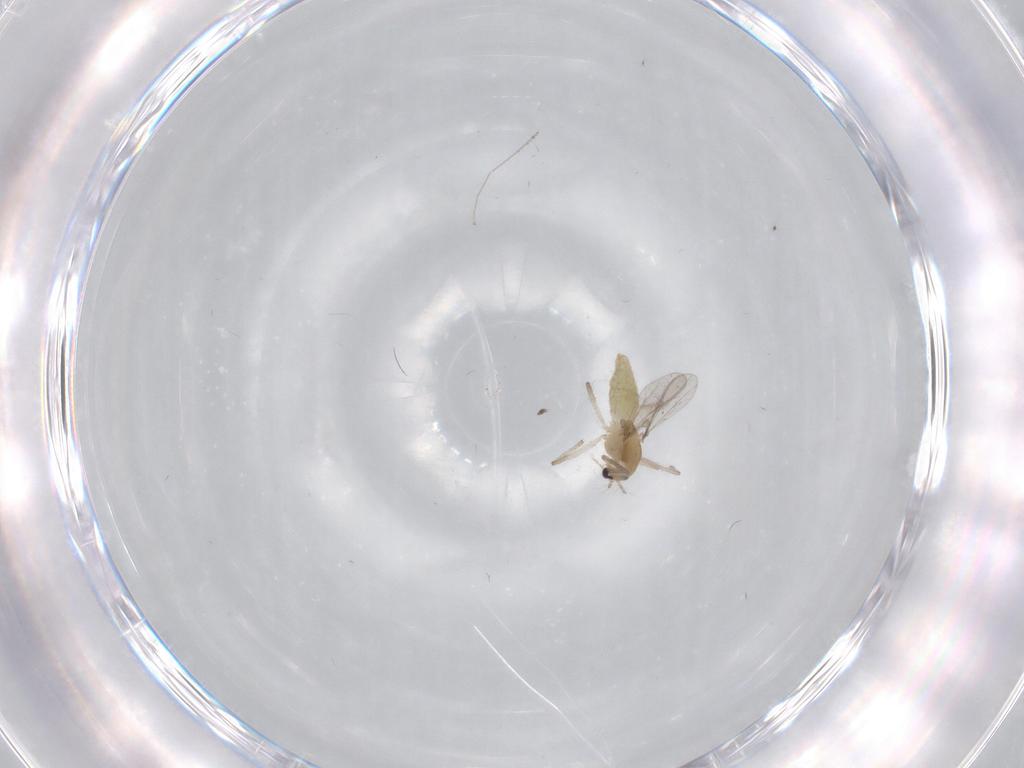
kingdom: Animalia
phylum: Arthropoda
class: Insecta
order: Diptera
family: Chironomidae
